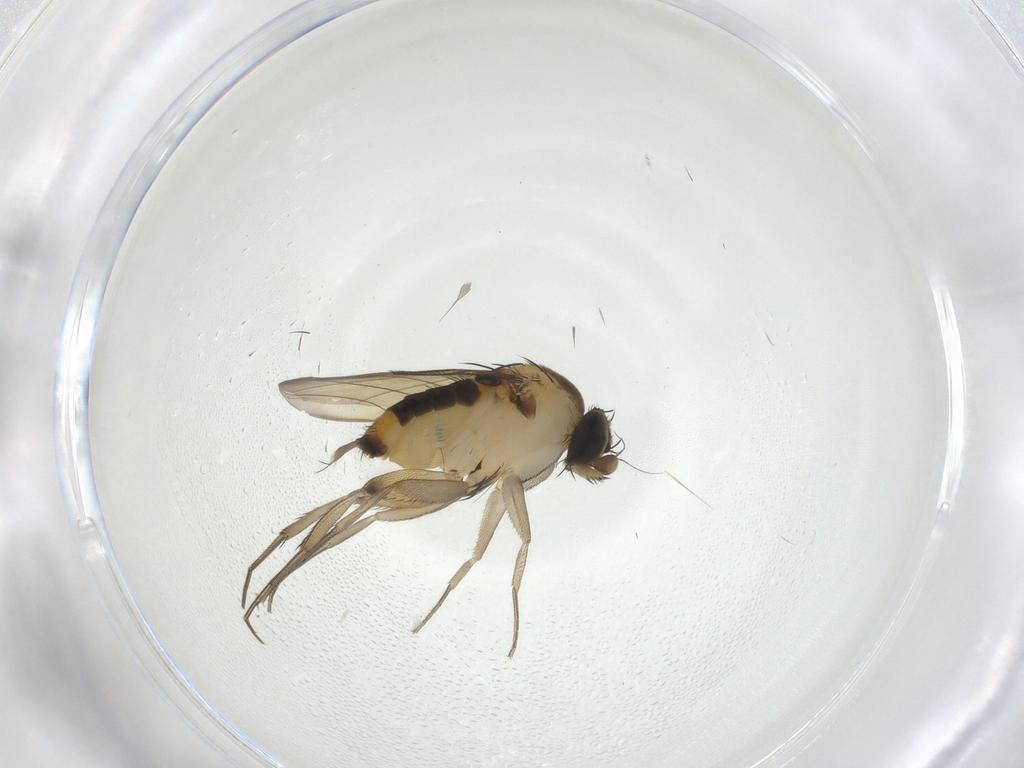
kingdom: Animalia
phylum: Arthropoda
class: Insecta
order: Diptera
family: Phoridae
